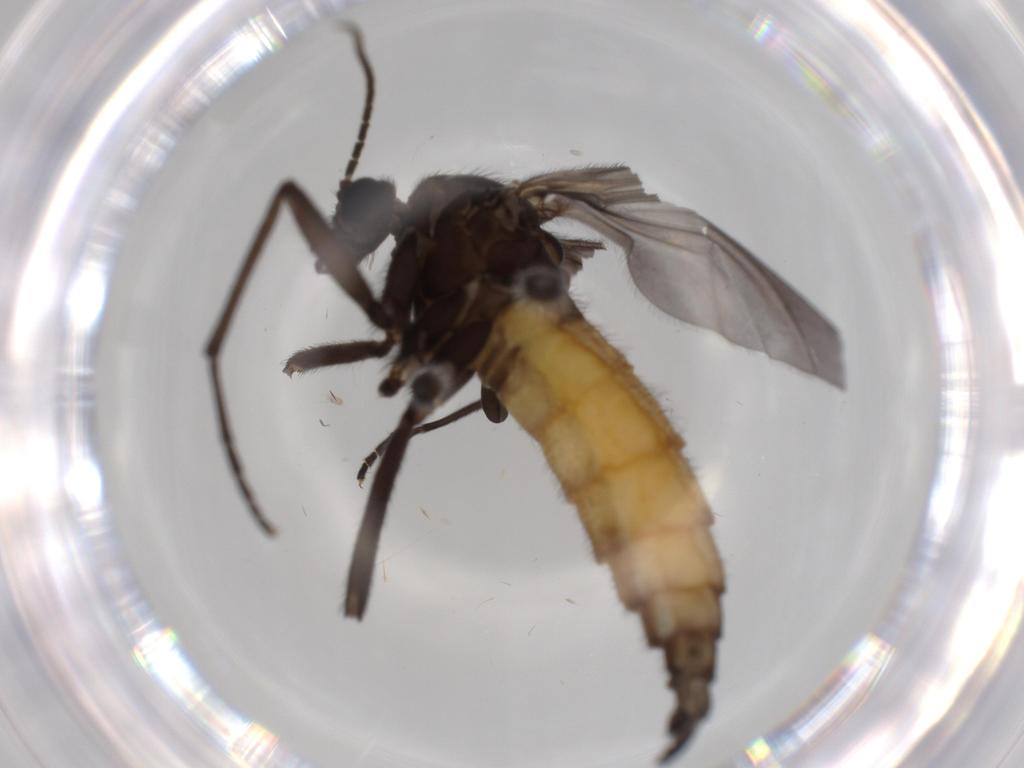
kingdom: Animalia
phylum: Arthropoda
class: Insecta
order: Diptera
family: Sciaridae
